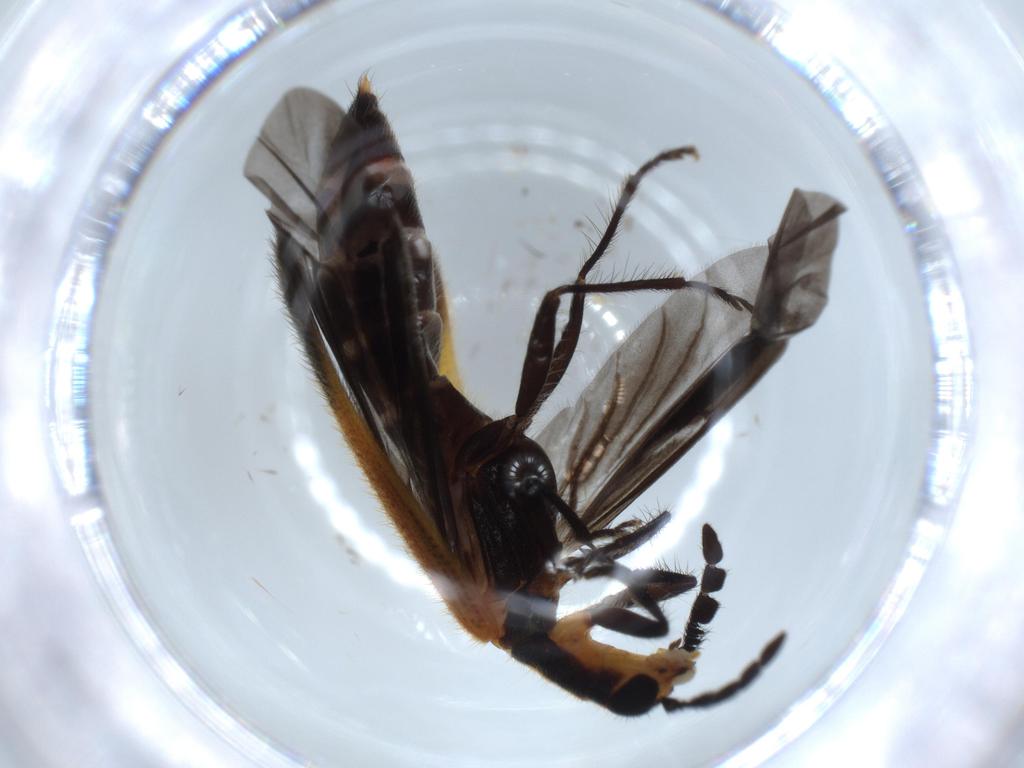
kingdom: Animalia
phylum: Arthropoda
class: Insecta
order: Coleoptera
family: Cleridae
